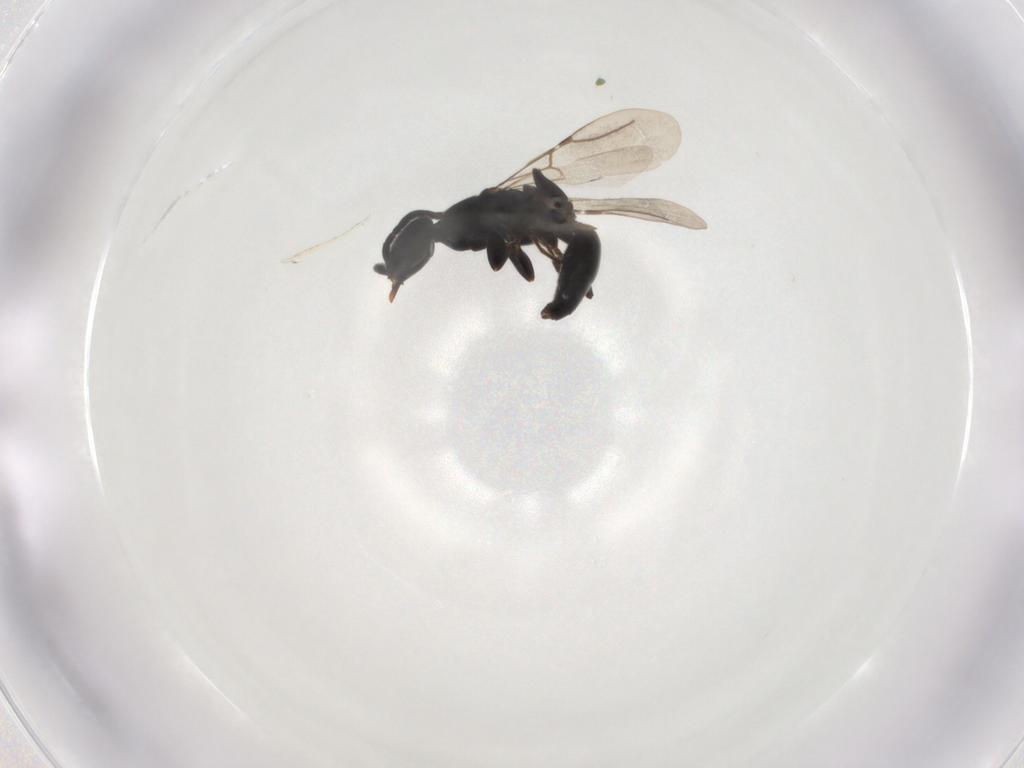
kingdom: Animalia
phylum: Arthropoda
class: Insecta
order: Hymenoptera
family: Bethylidae
